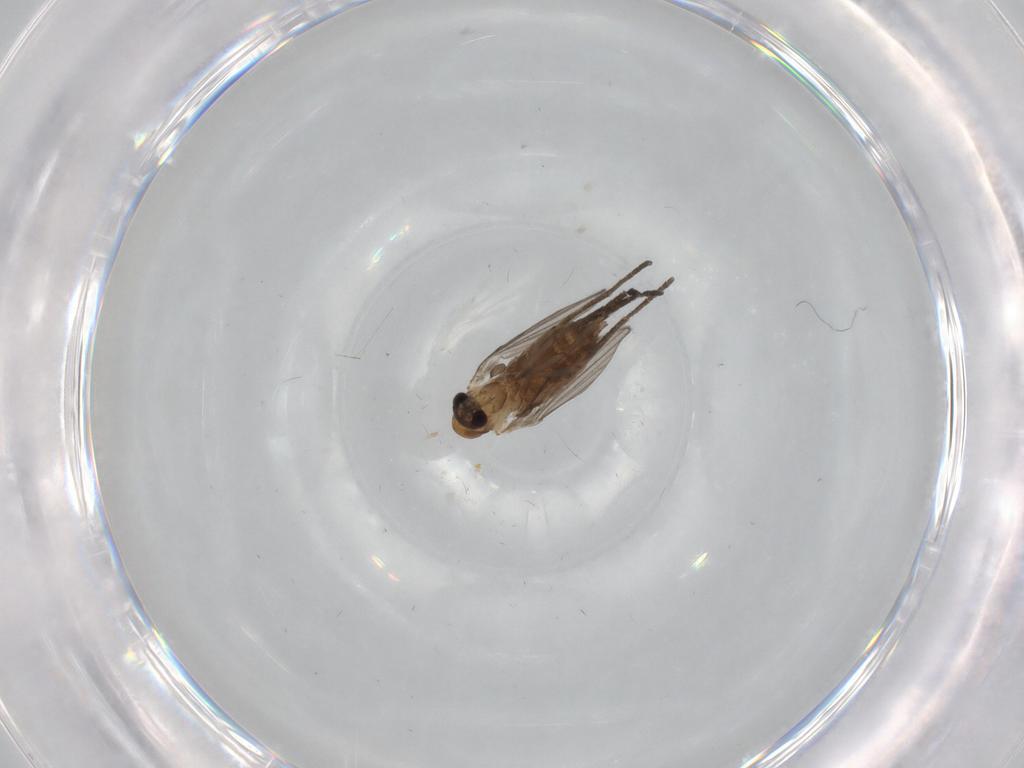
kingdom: Animalia
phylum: Arthropoda
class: Insecta
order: Diptera
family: Psychodidae
